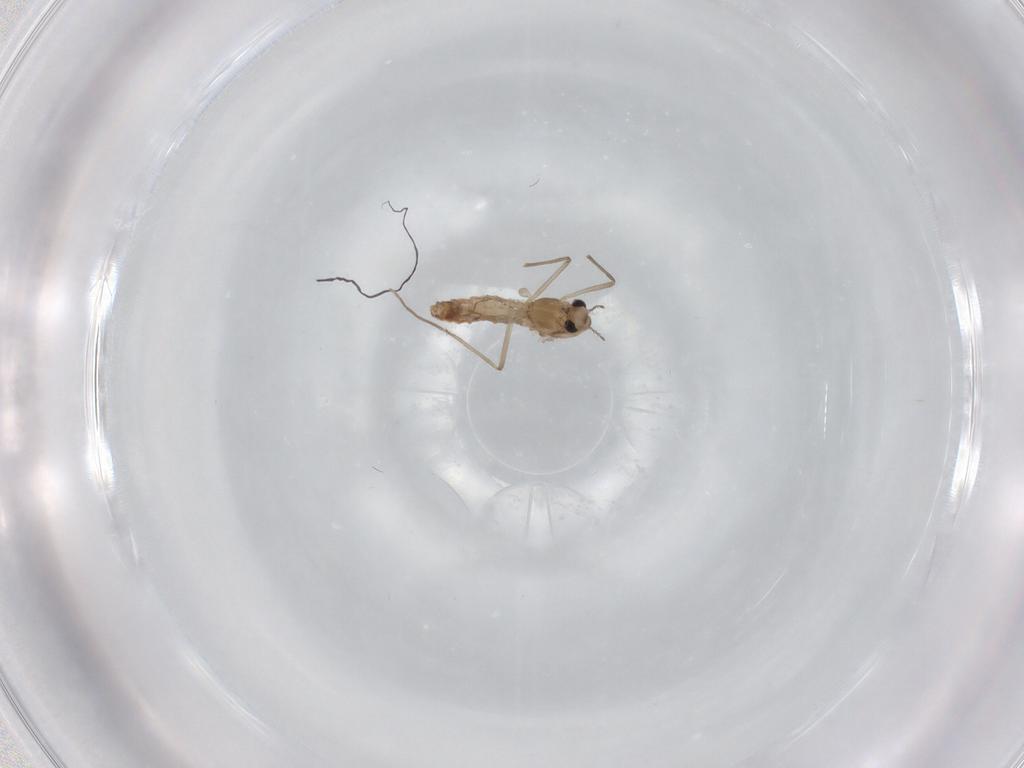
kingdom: Animalia
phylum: Arthropoda
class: Insecta
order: Diptera
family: Chironomidae
